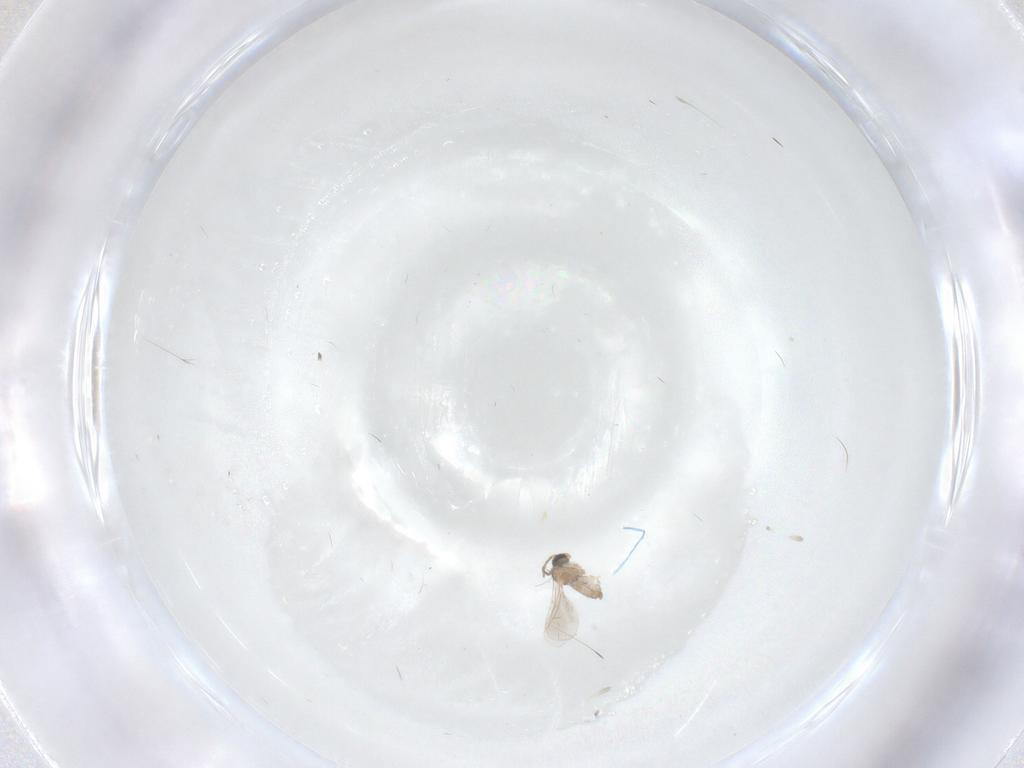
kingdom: Animalia
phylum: Arthropoda
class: Insecta
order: Diptera
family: Cecidomyiidae
